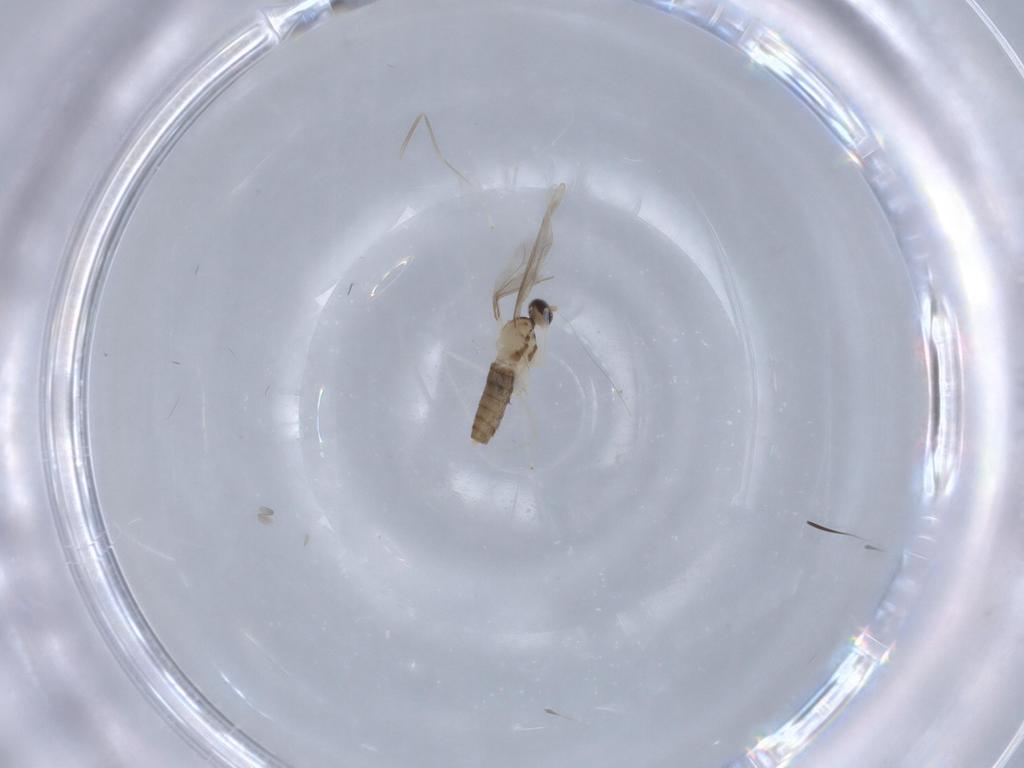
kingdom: Animalia
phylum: Arthropoda
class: Insecta
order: Diptera
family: Cecidomyiidae
